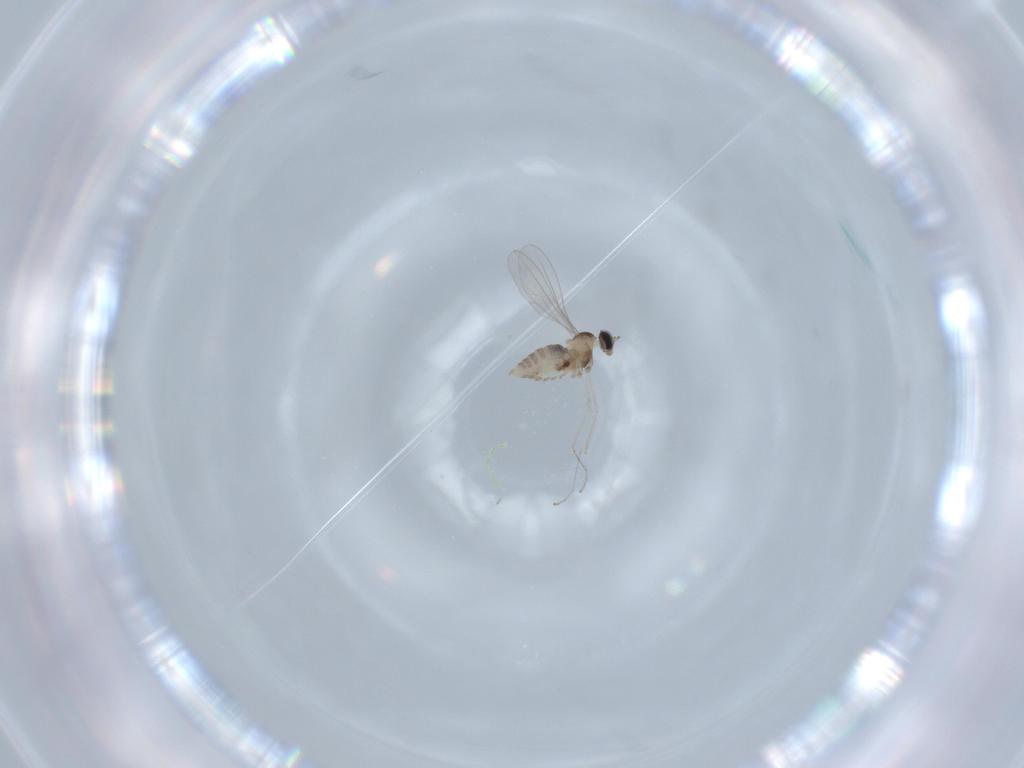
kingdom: Animalia
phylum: Arthropoda
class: Insecta
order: Diptera
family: Cecidomyiidae
